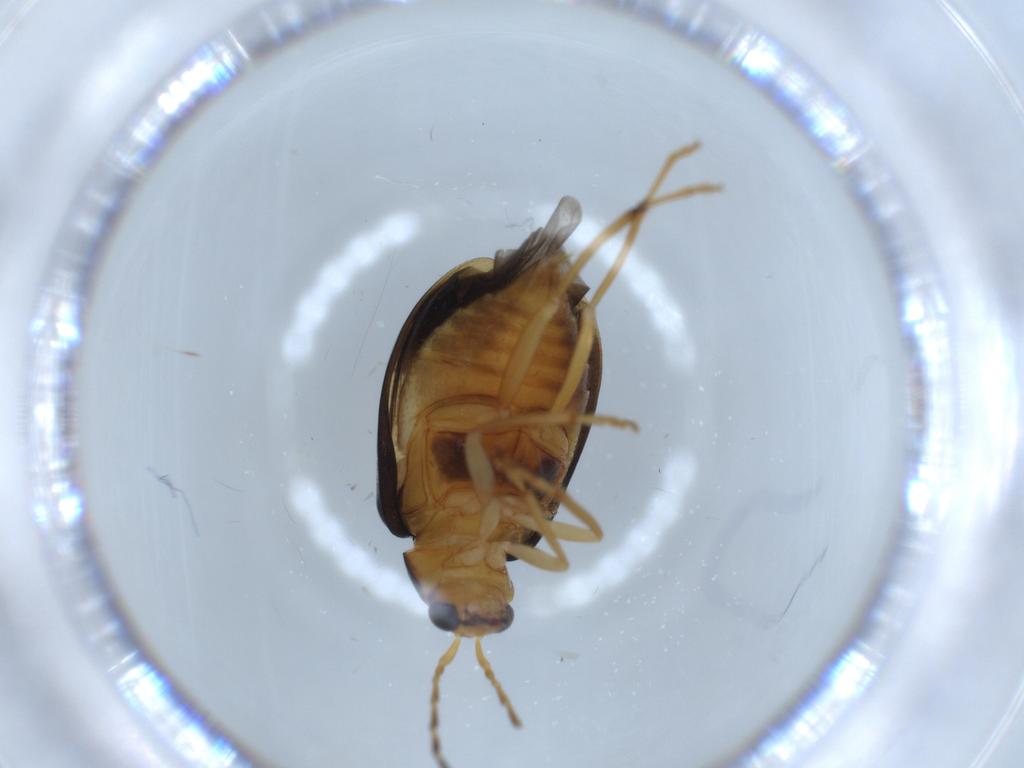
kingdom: Animalia
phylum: Arthropoda
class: Insecta
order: Coleoptera
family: Chrysomelidae
